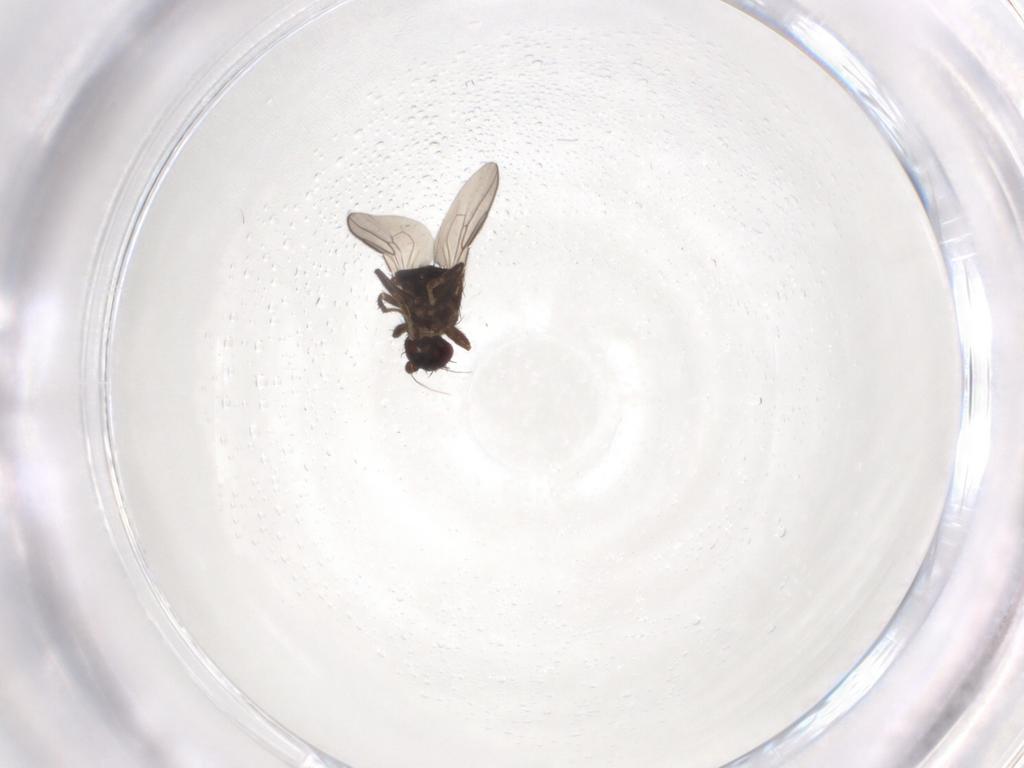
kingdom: Animalia
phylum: Arthropoda
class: Insecta
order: Diptera
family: Sphaeroceridae
